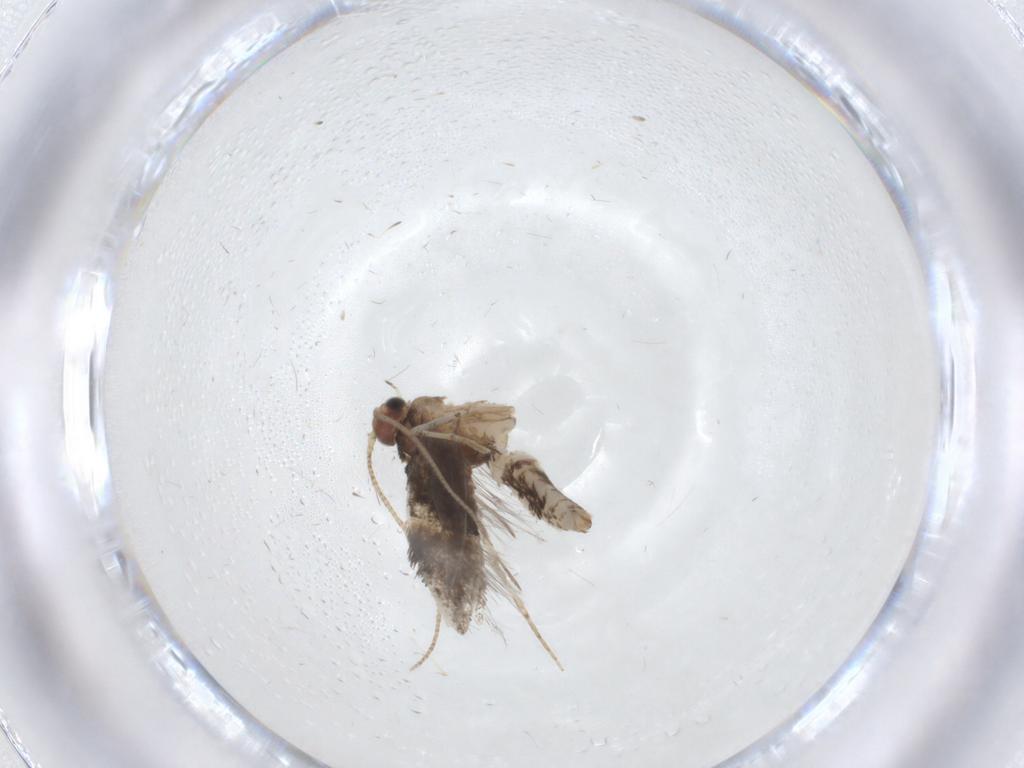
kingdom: Animalia
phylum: Arthropoda
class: Insecta
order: Lepidoptera
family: Tineidae
